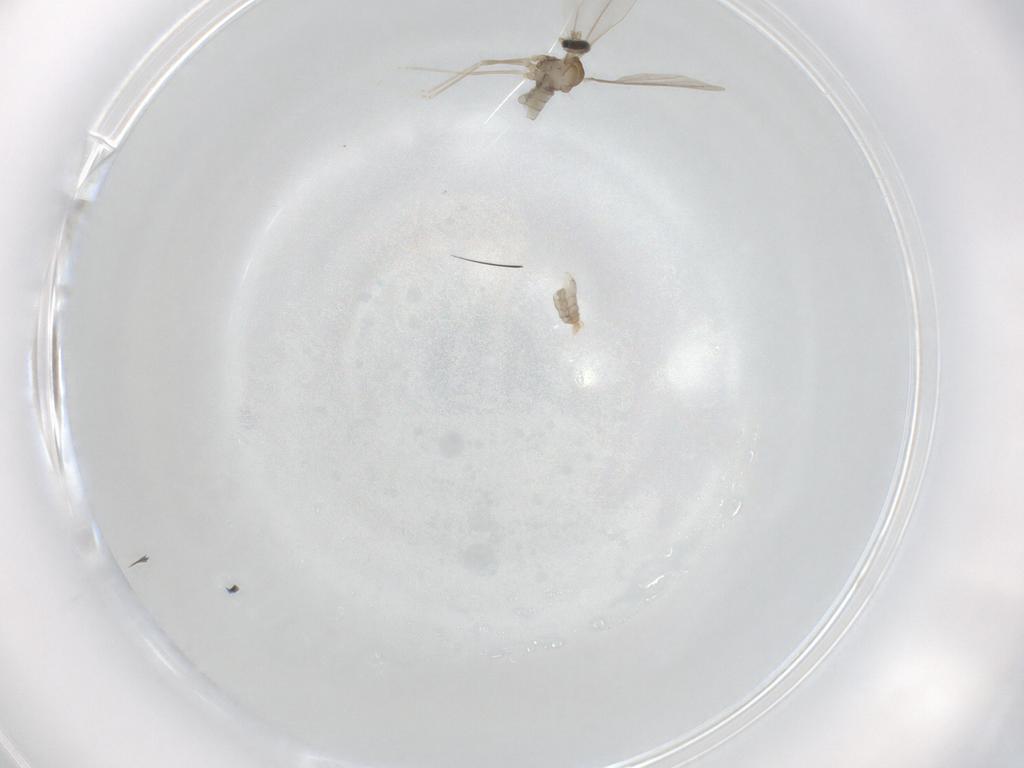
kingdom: Animalia
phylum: Arthropoda
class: Insecta
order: Diptera
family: Cecidomyiidae
